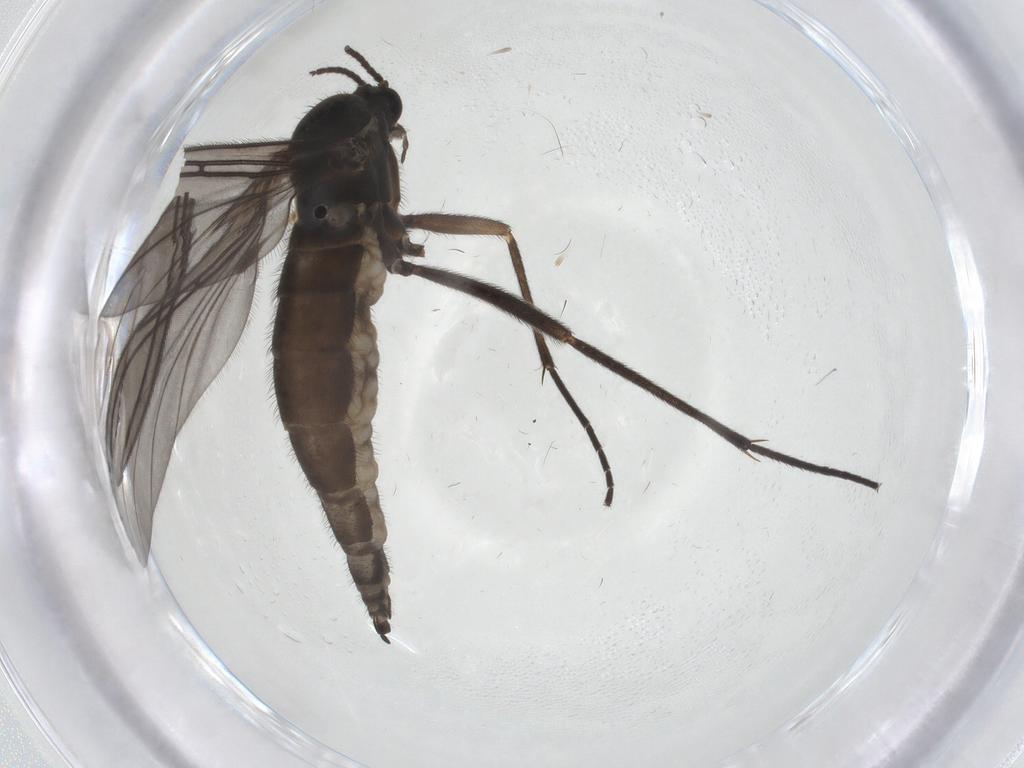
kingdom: Animalia
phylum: Arthropoda
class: Insecta
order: Diptera
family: Sciaridae
